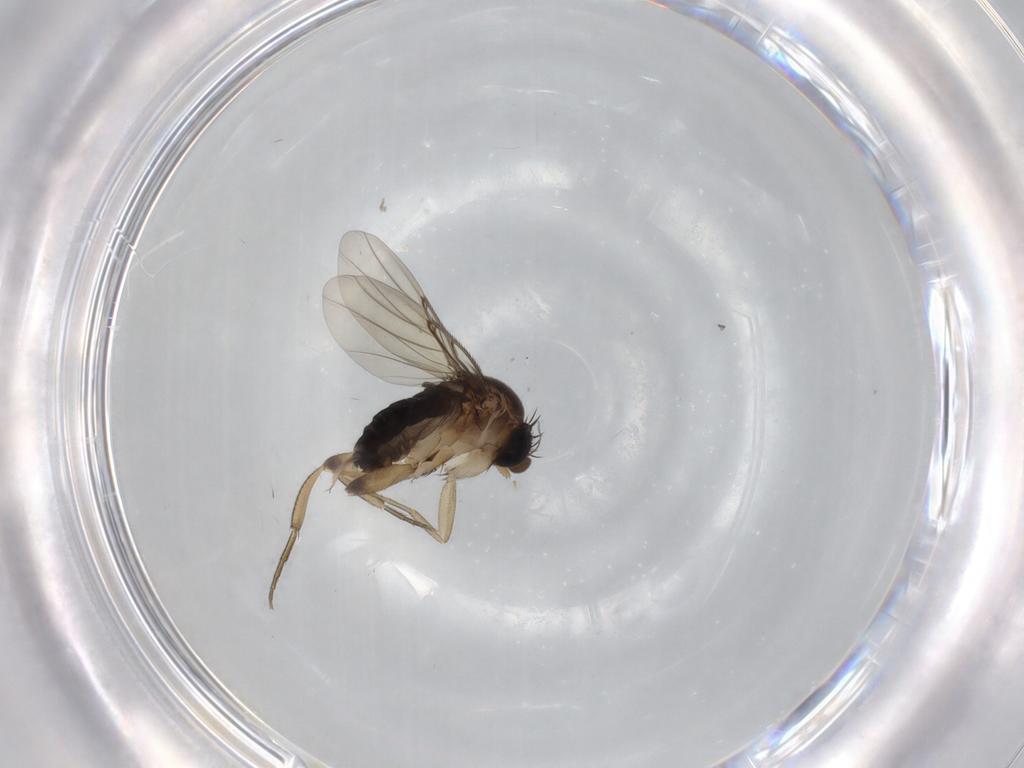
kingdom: Animalia
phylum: Arthropoda
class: Insecta
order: Diptera
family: Phoridae
